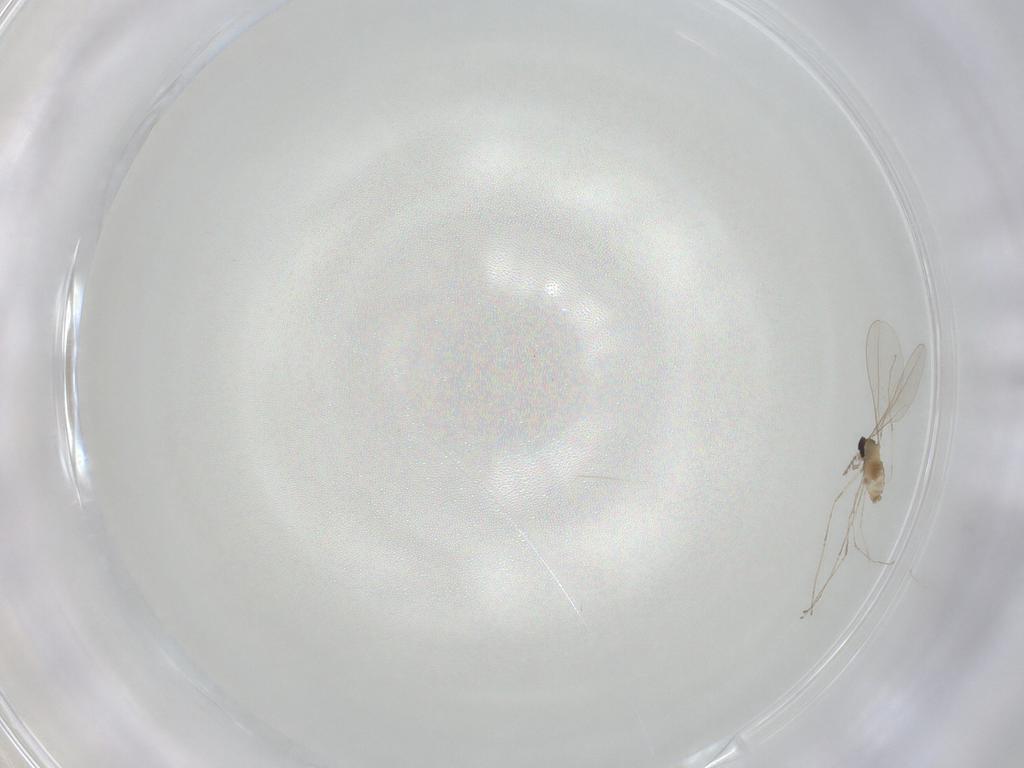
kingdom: Animalia
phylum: Arthropoda
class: Insecta
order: Diptera
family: Cecidomyiidae
